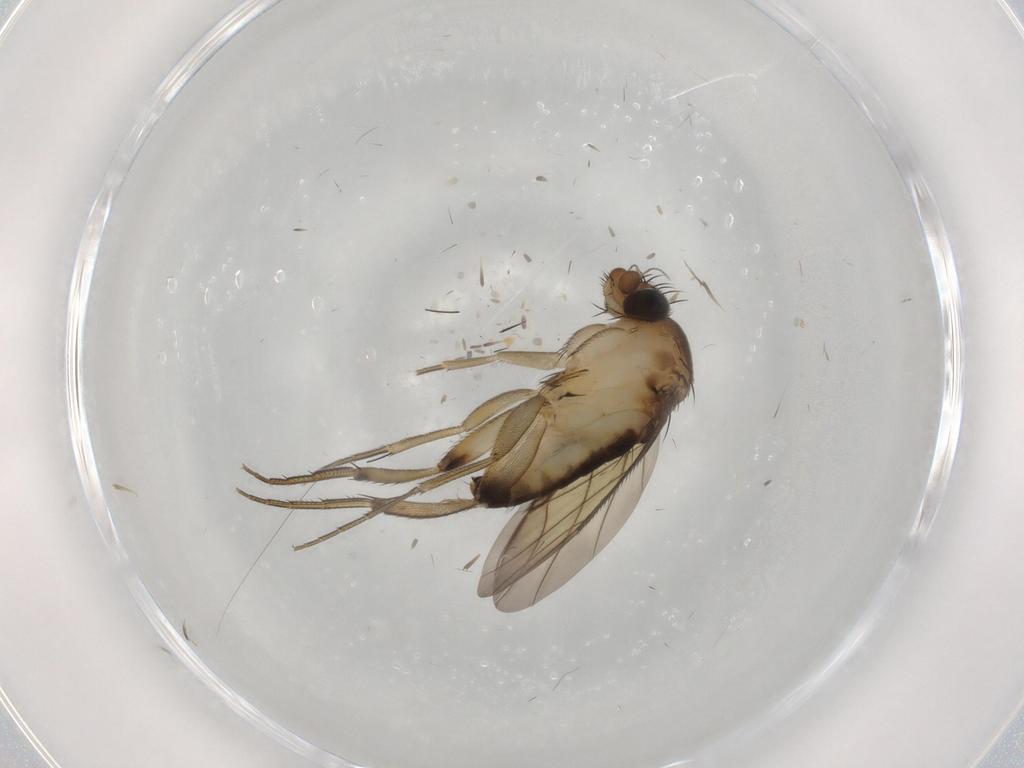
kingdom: Animalia
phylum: Arthropoda
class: Insecta
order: Diptera
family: Phoridae
